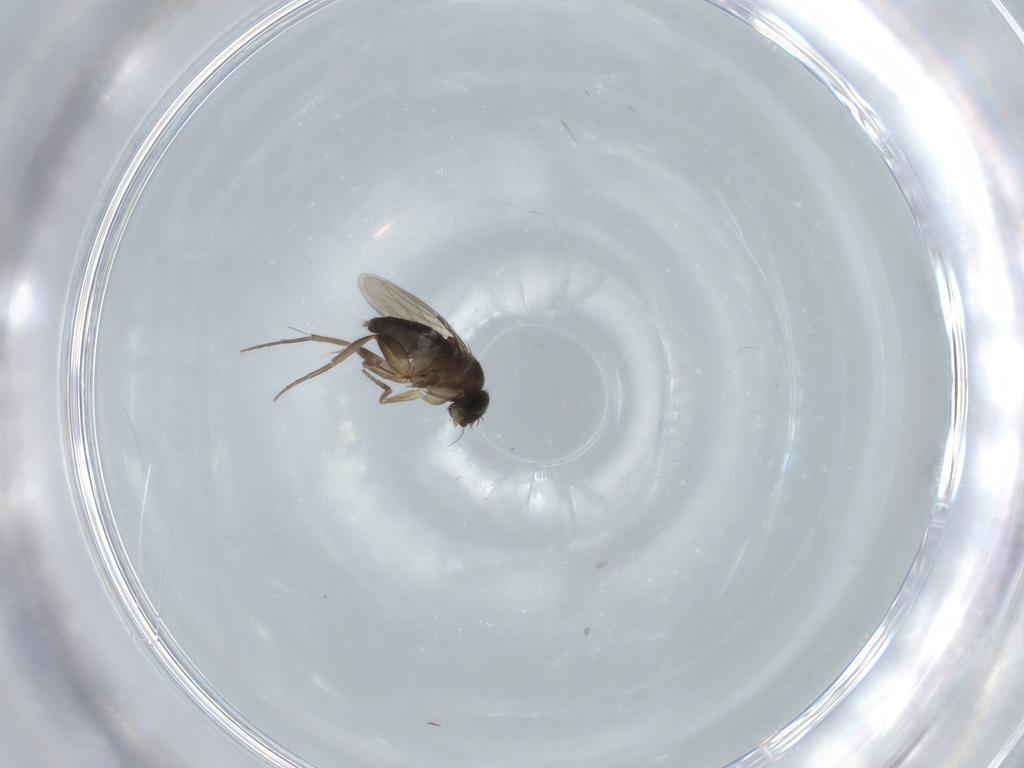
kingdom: Animalia
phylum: Arthropoda
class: Insecta
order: Diptera
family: Phoridae
